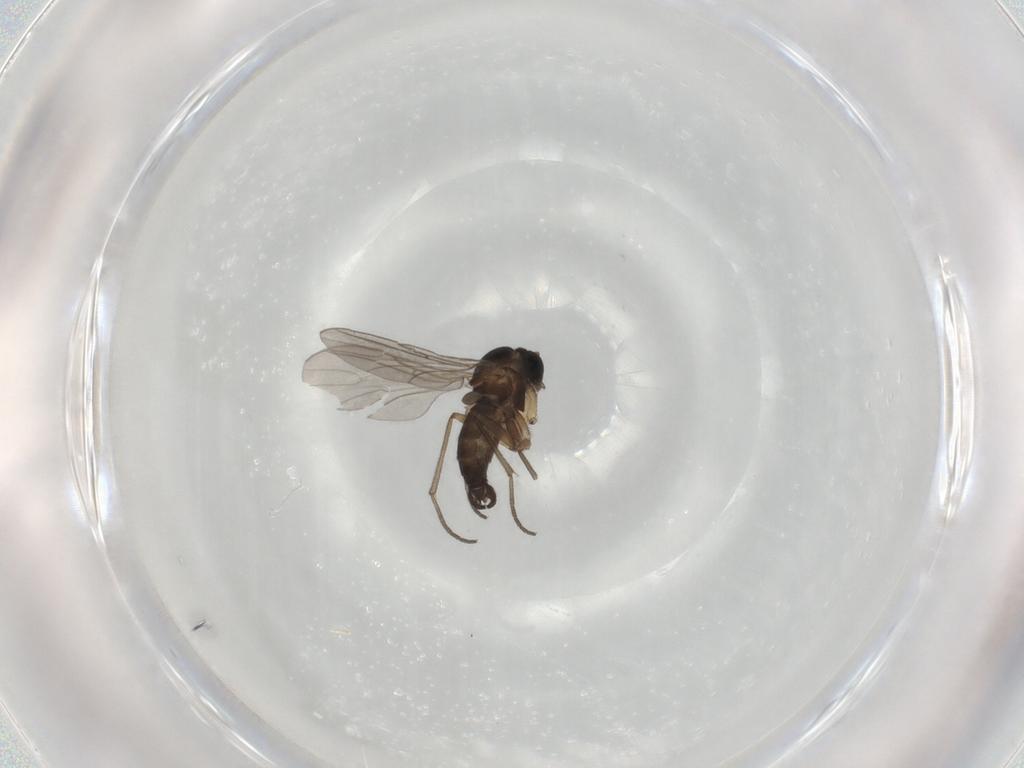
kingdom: Animalia
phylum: Arthropoda
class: Insecta
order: Diptera
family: Sciaridae
